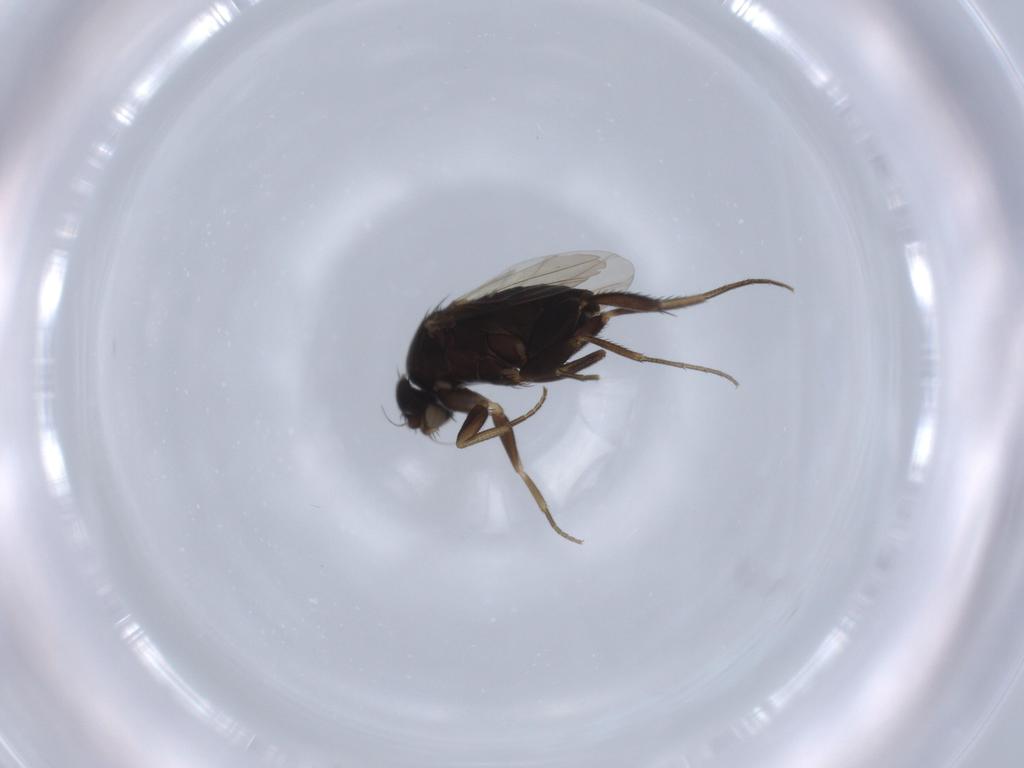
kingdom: Animalia
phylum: Arthropoda
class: Insecta
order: Diptera
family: Phoridae
